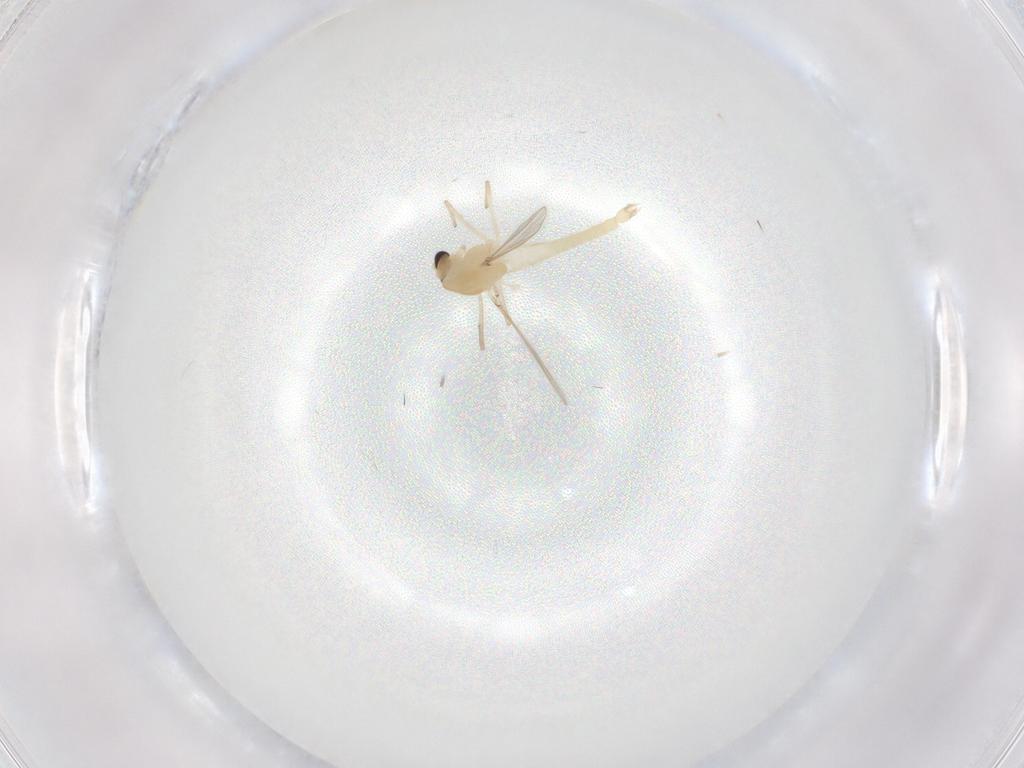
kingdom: Animalia
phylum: Arthropoda
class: Insecta
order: Diptera
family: Chironomidae
